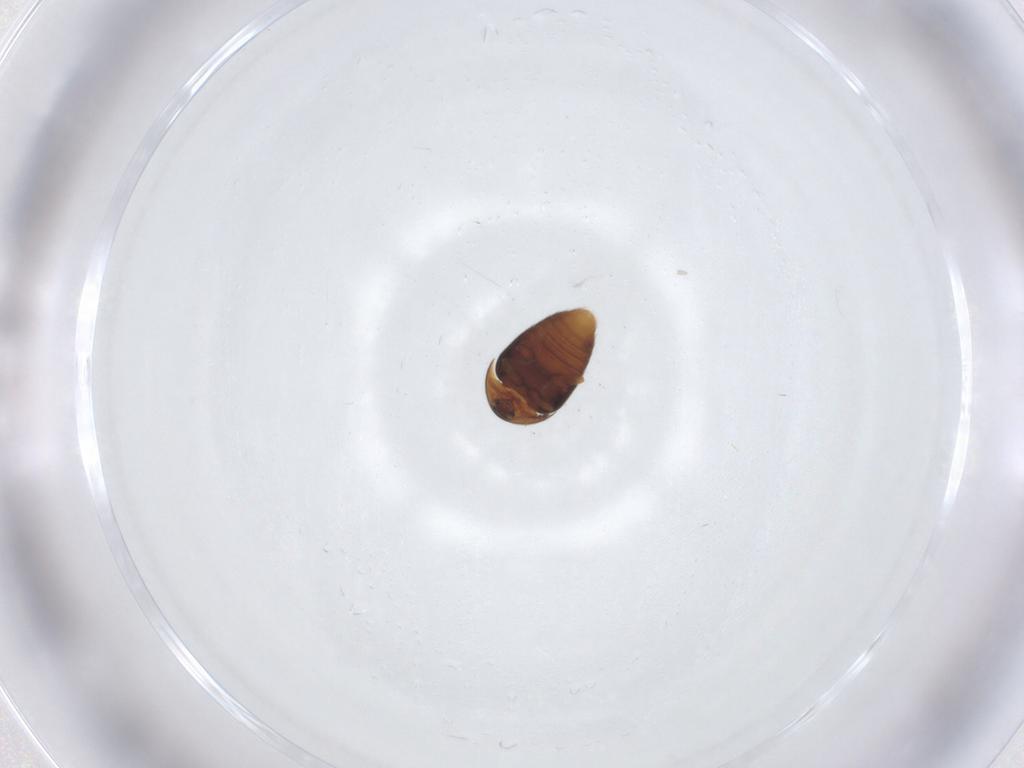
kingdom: Animalia
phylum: Arthropoda
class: Insecta
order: Coleoptera
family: Corylophidae
